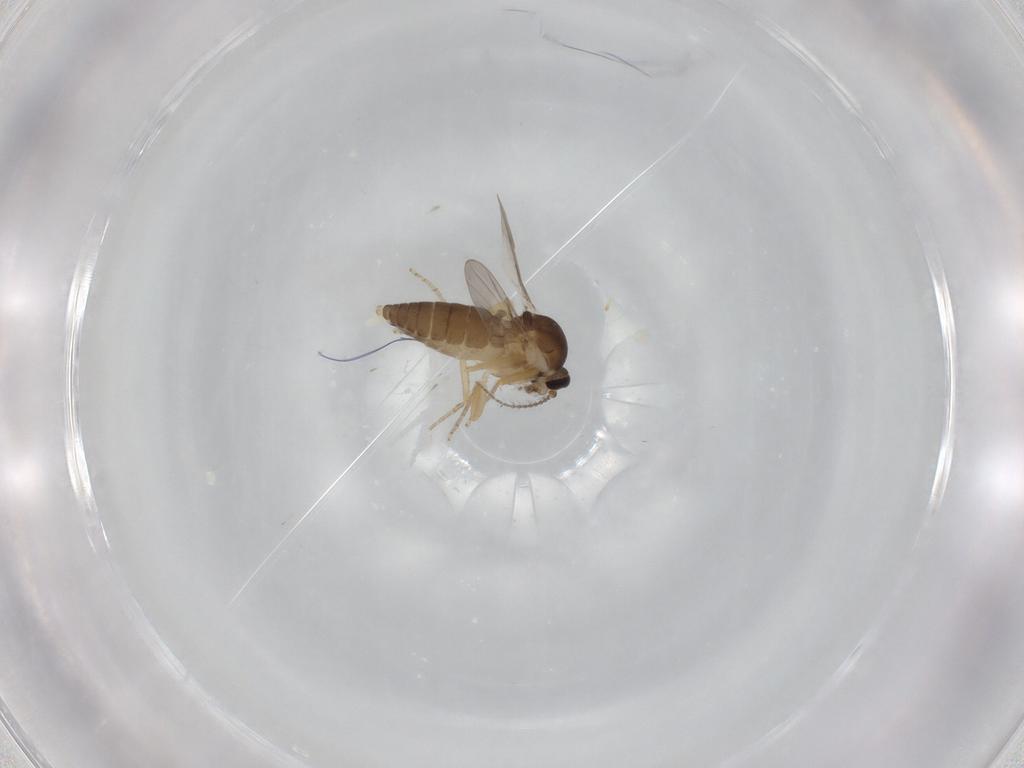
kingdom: Animalia
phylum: Arthropoda
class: Insecta
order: Diptera
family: Ceratopogonidae
